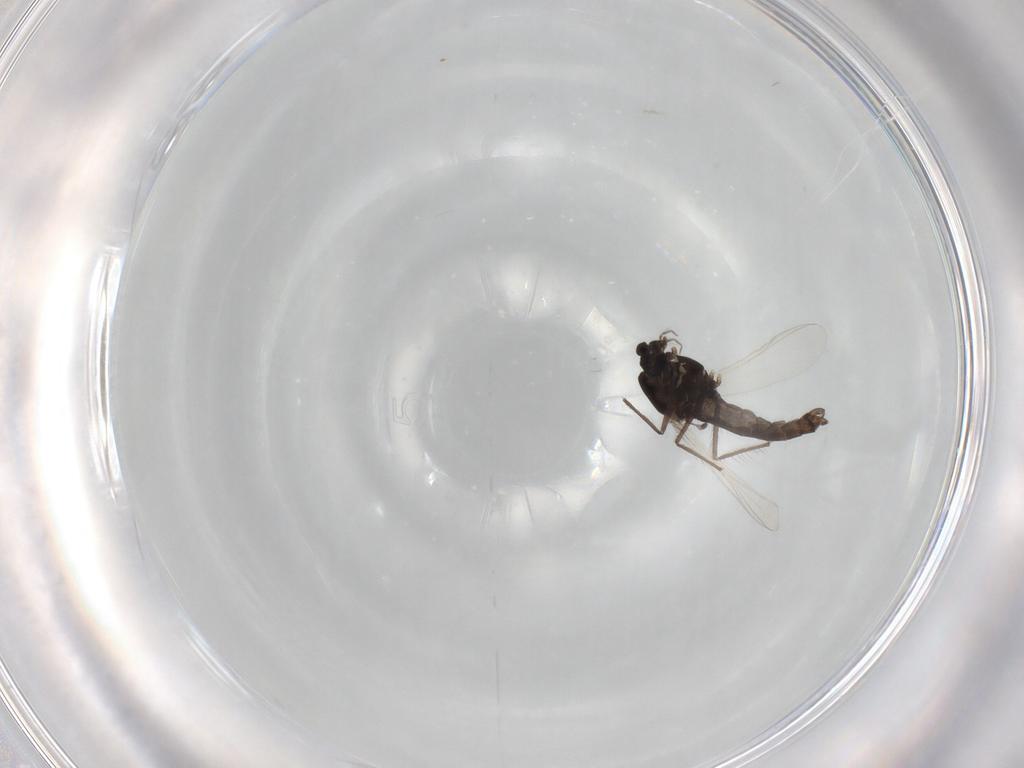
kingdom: Animalia
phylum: Arthropoda
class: Insecta
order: Diptera
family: Chironomidae
